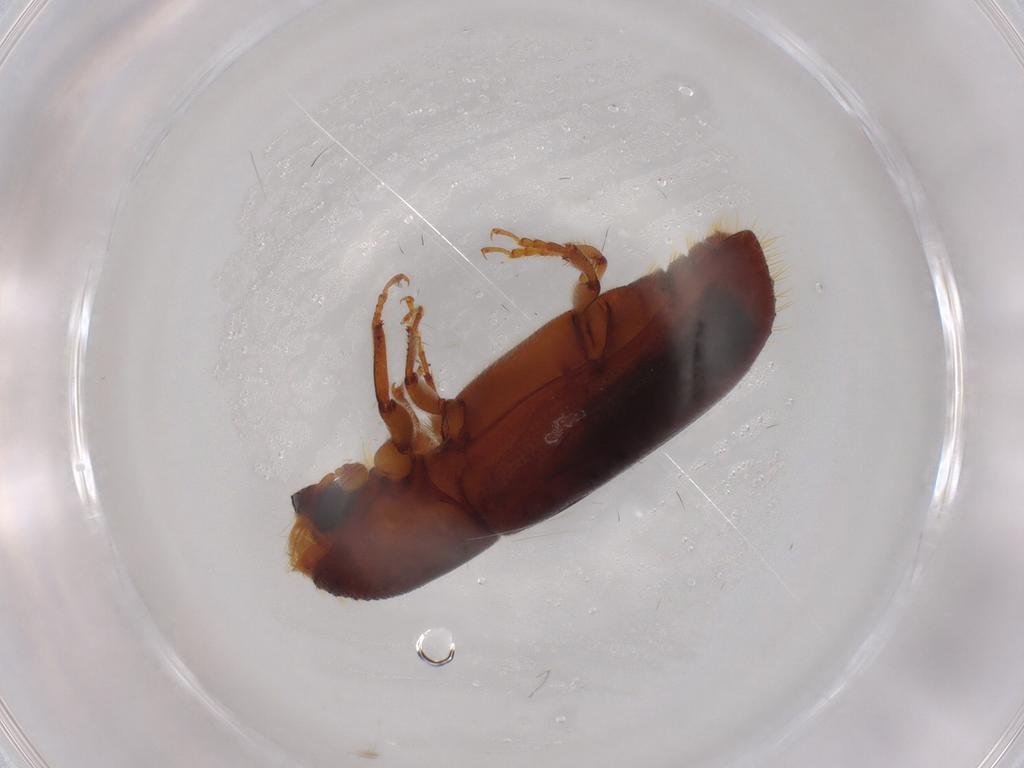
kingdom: Animalia
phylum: Arthropoda
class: Insecta
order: Coleoptera
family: Curculionidae
